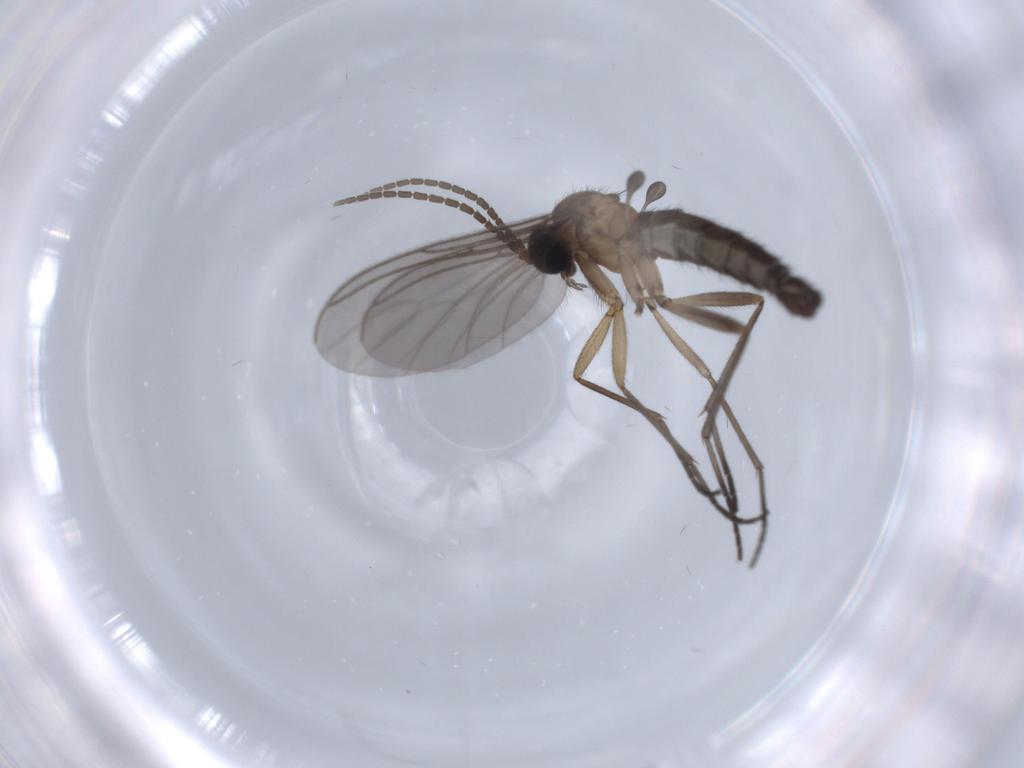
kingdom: Animalia
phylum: Arthropoda
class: Insecta
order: Diptera
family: Sciaridae
